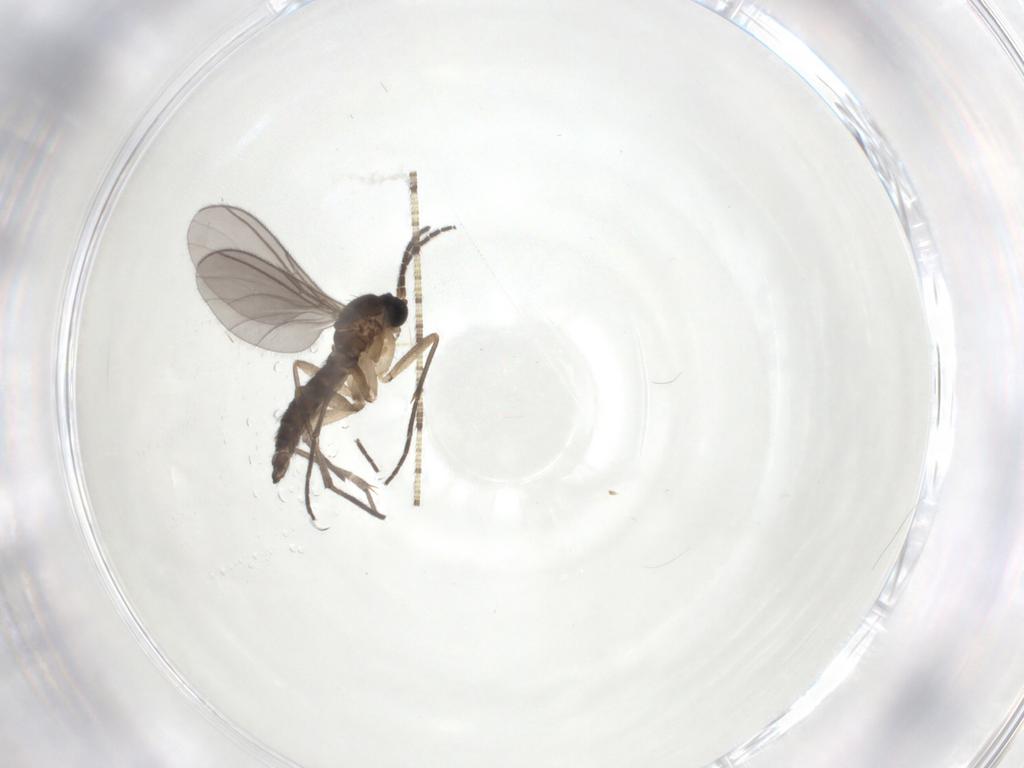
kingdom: Animalia
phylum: Arthropoda
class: Insecta
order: Diptera
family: Sciaridae
